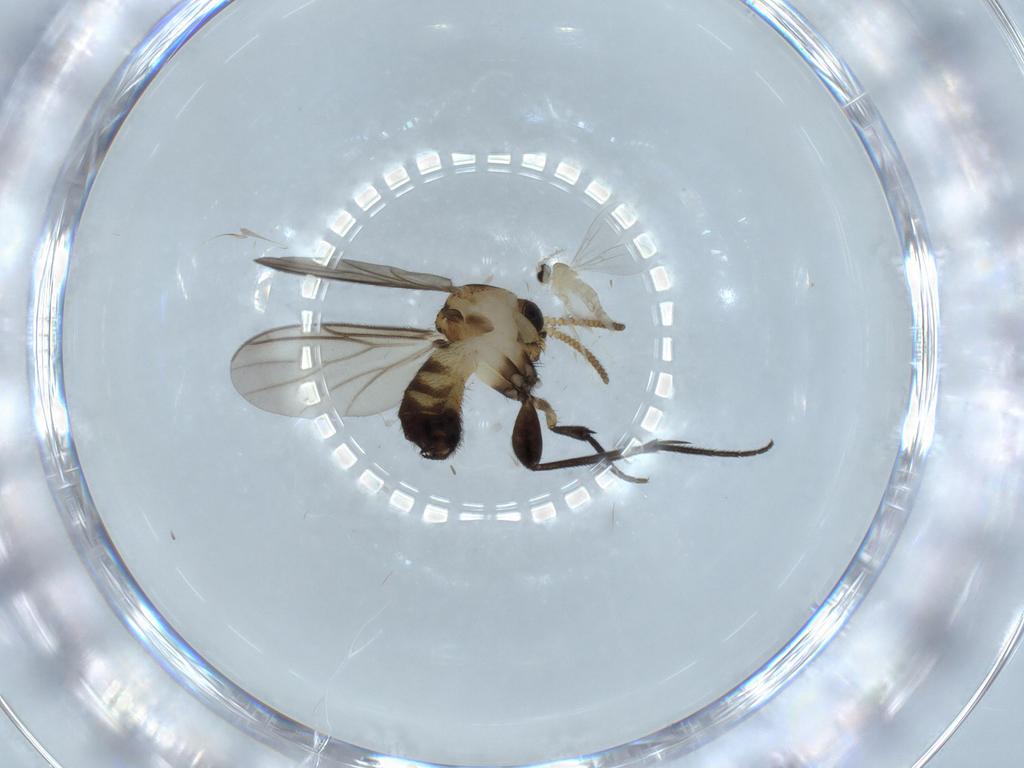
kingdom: Animalia
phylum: Arthropoda
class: Insecta
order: Diptera
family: Cecidomyiidae
